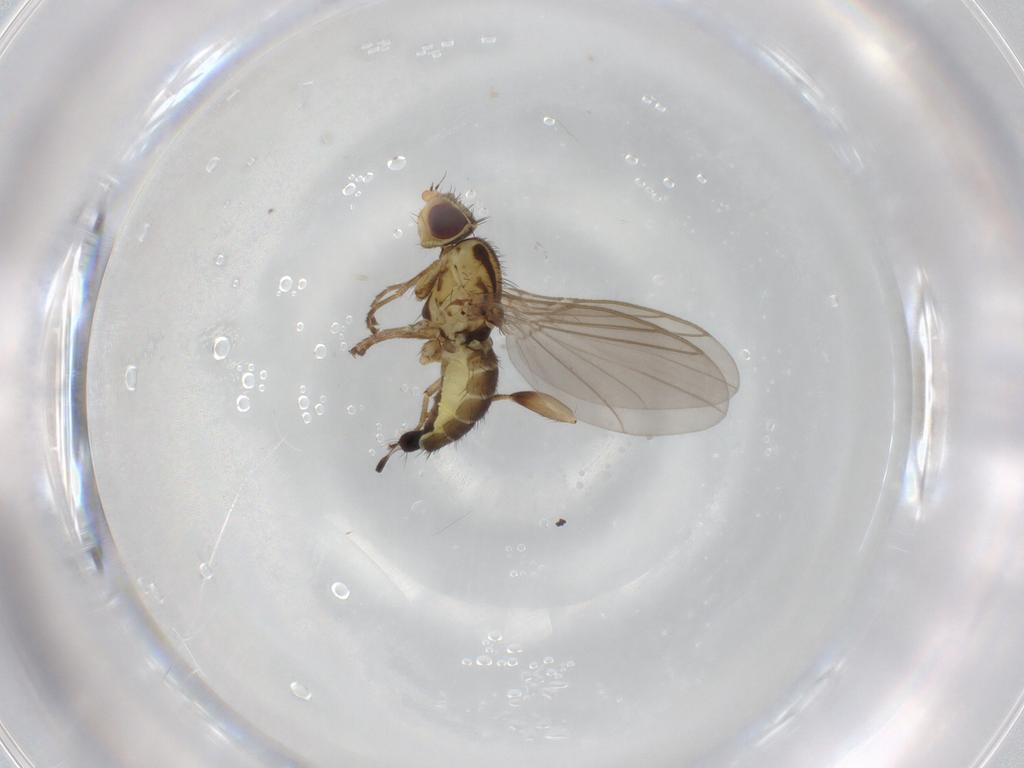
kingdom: Animalia
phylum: Arthropoda
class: Insecta
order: Diptera
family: Agromyzidae
